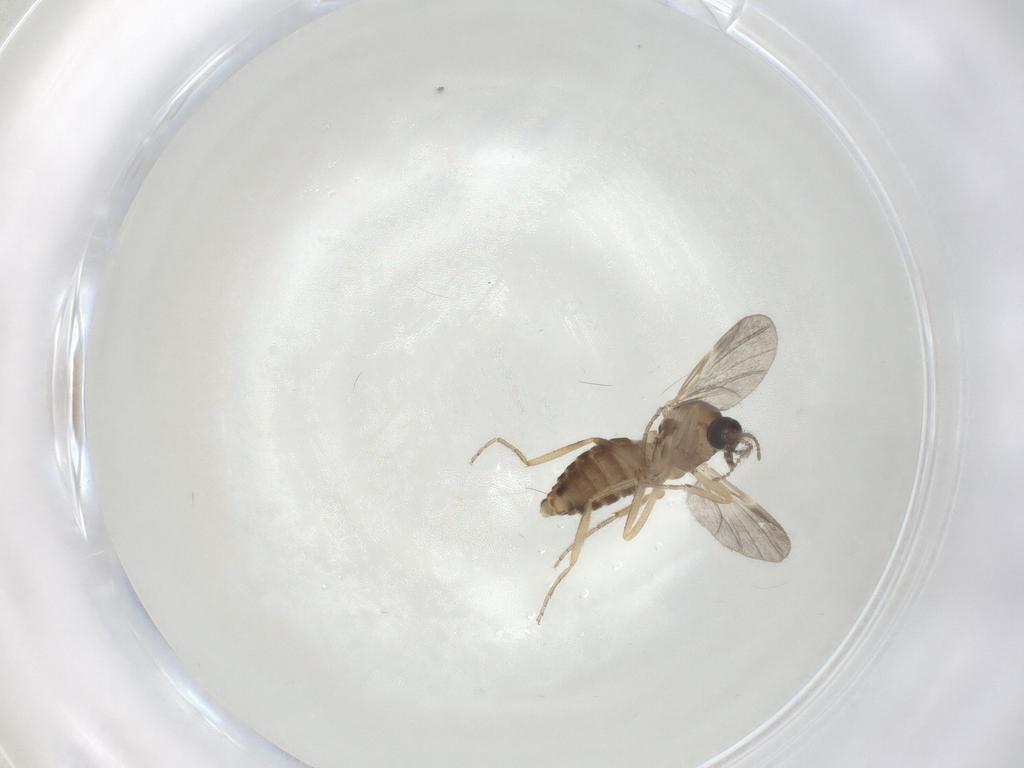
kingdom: Animalia
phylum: Arthropoda
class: Insecta
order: Diptera
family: Ceratopogonidae
